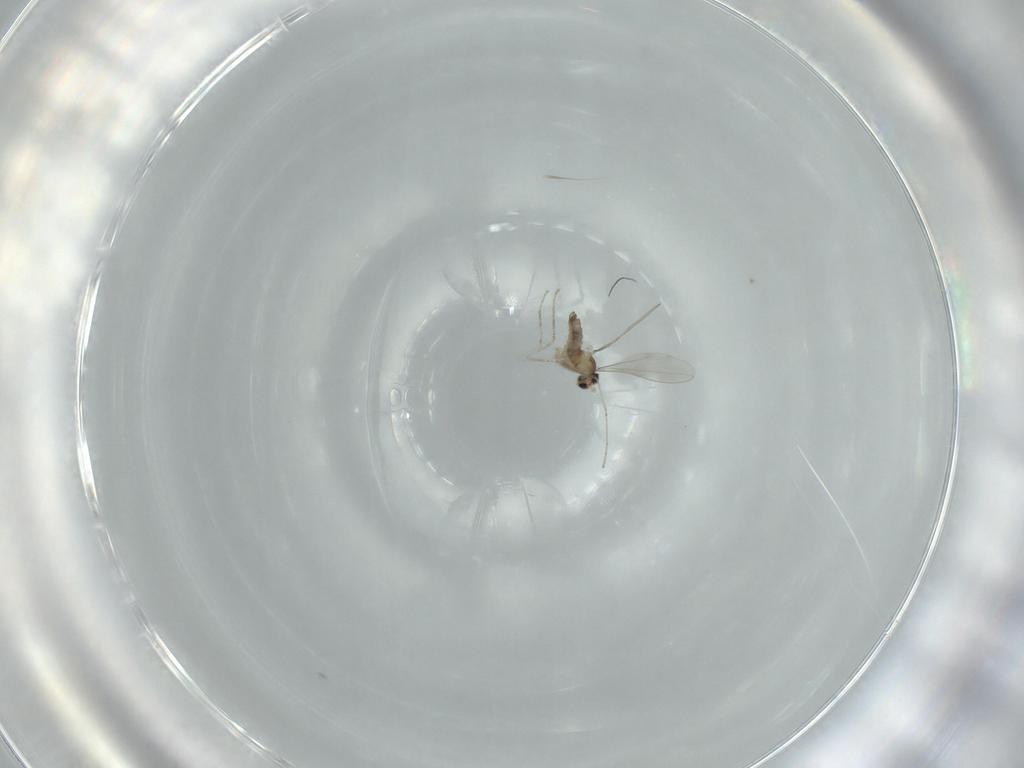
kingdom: Animalia
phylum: Arthropoda
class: Insecta
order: Diptera
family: Cecidomyiidae
